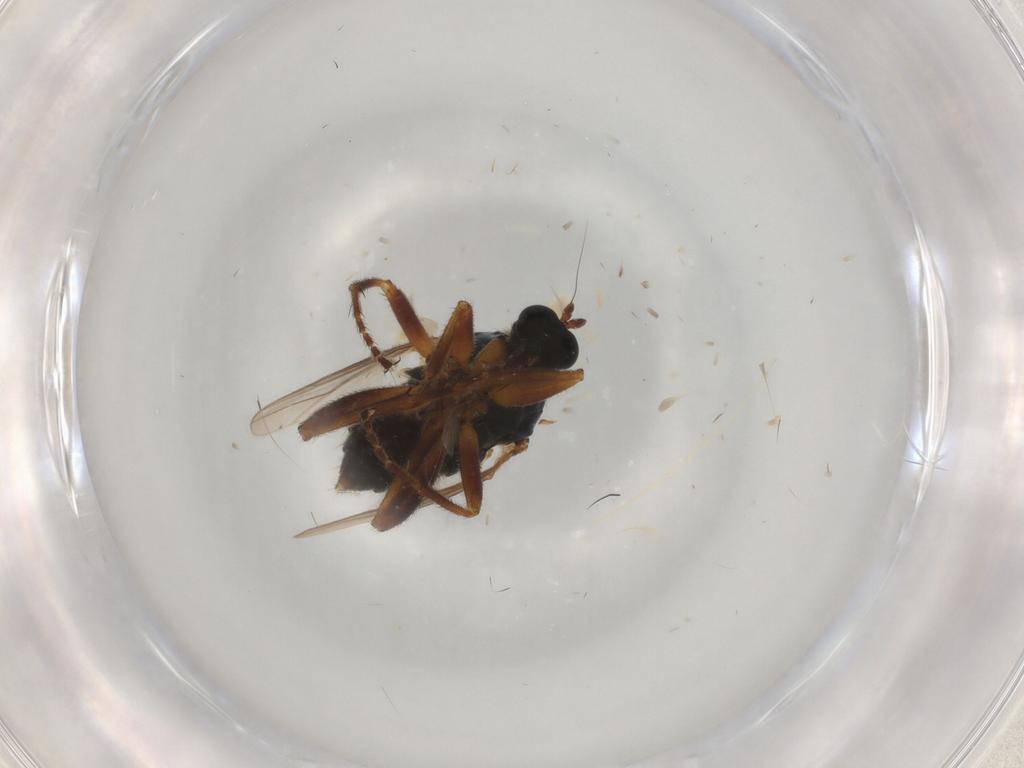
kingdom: Animalia
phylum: Arthropoda
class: Insecta
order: Diptera
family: Hybotidae
